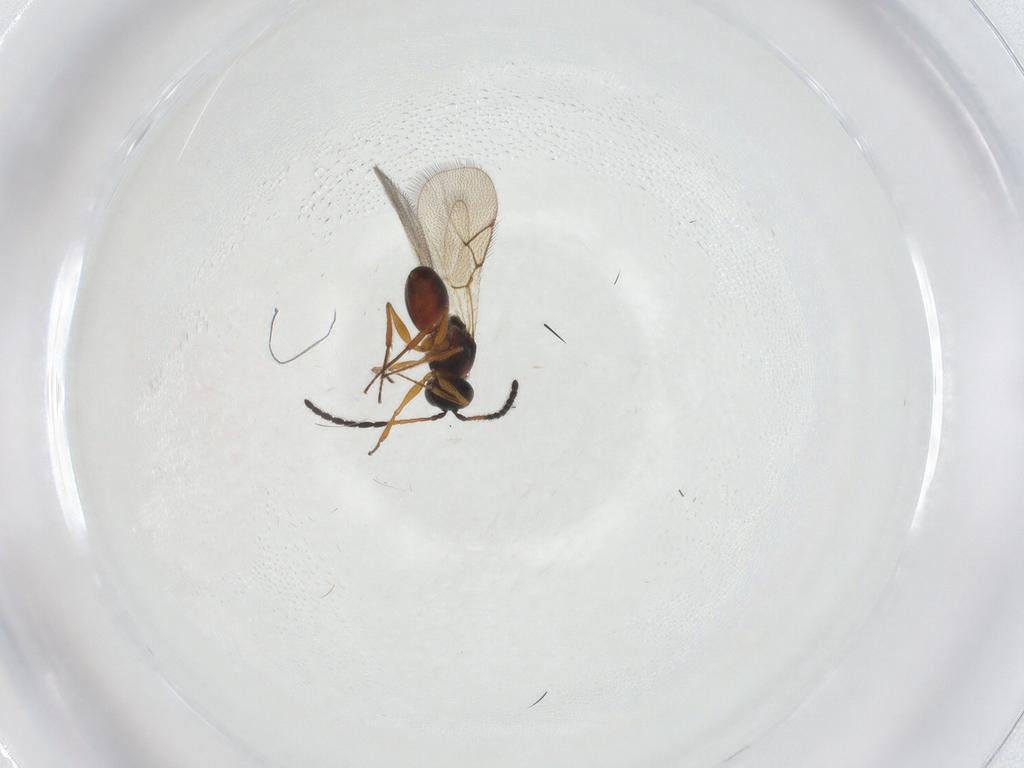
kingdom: Animalia
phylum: Arthropoda
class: Insecta
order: Hymenoptera
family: Figitidae
